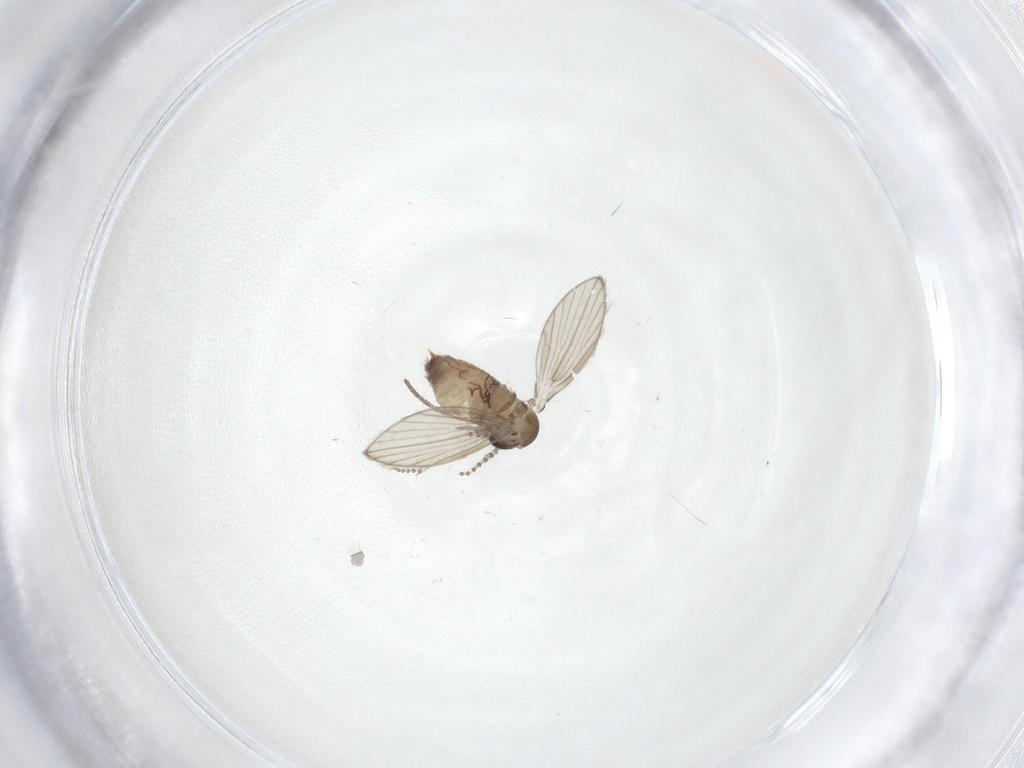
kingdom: Animalia
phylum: Arthropoda
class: Insecta
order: Diptera
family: Psychodidae
